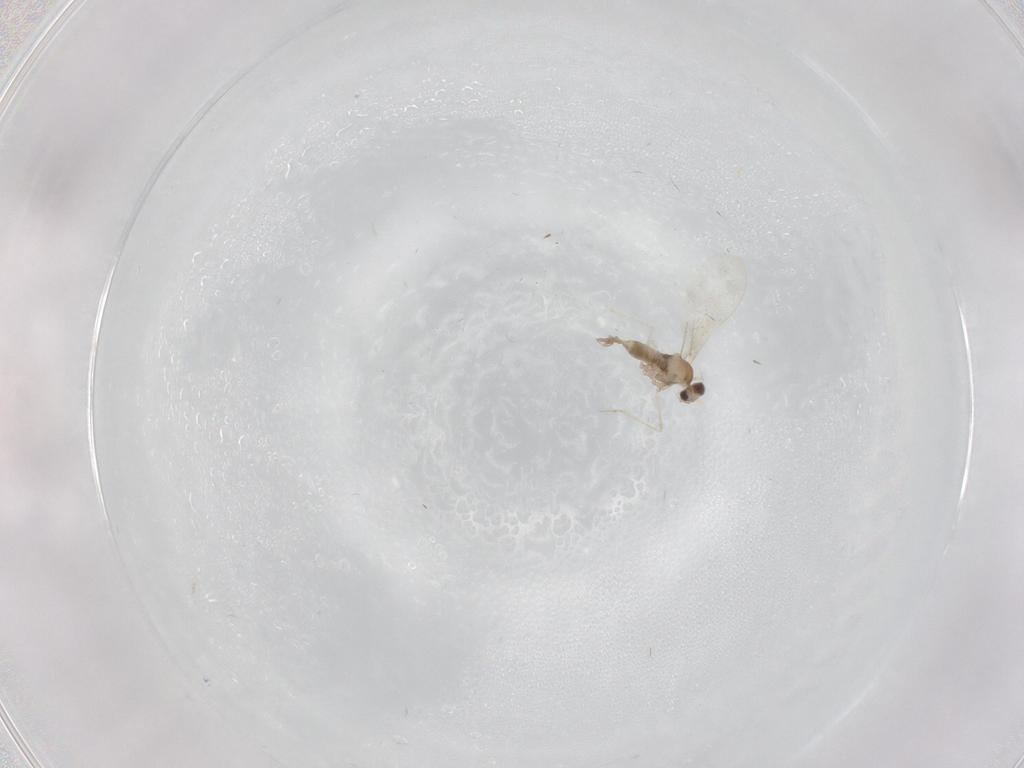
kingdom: Animalia
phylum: Arthropoda
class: Insecta
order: Diptera
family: Cecidomyiidae
